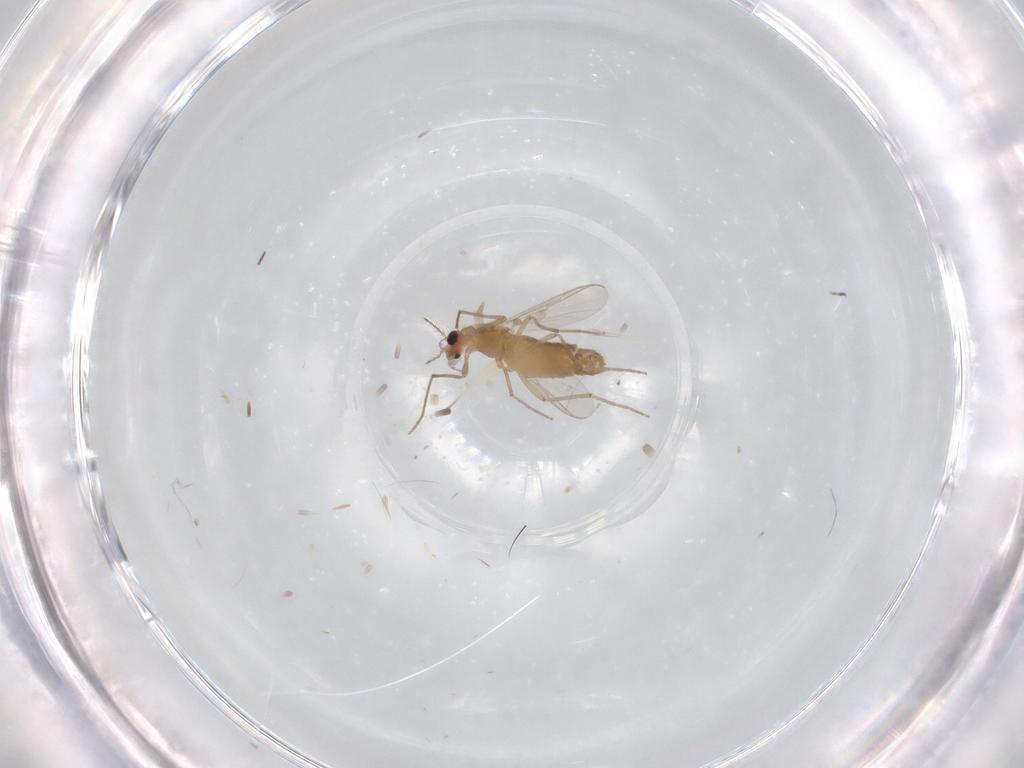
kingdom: Animalia
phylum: Arthropoda
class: Insecta
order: Diptera
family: Chironomidae
